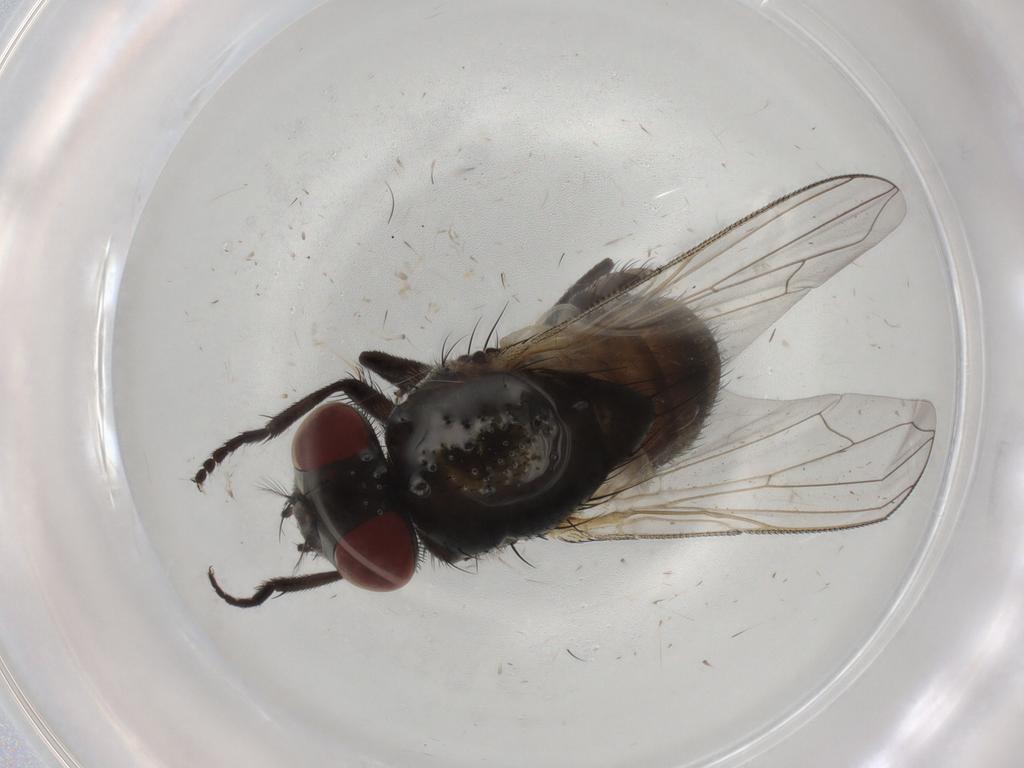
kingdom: Animalia
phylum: Arthropoda
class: Insecta
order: Diptera
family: Muscidae
